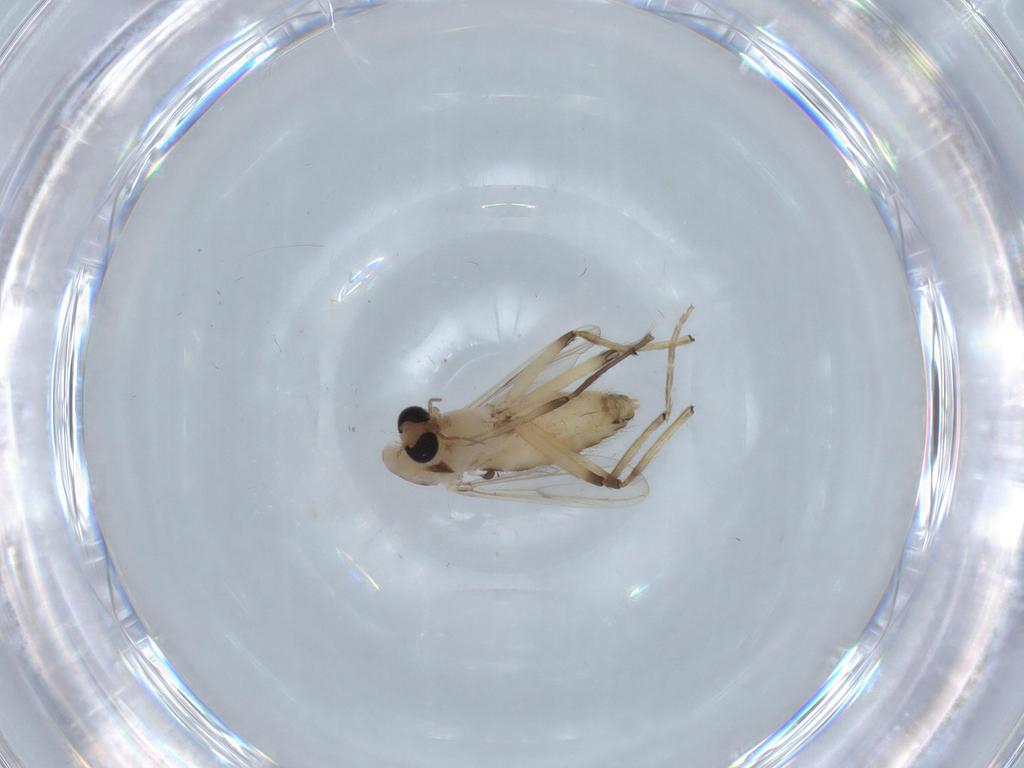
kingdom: Animalia
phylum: Arthropoda
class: Insecta
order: Diptera
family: Chironomidae
